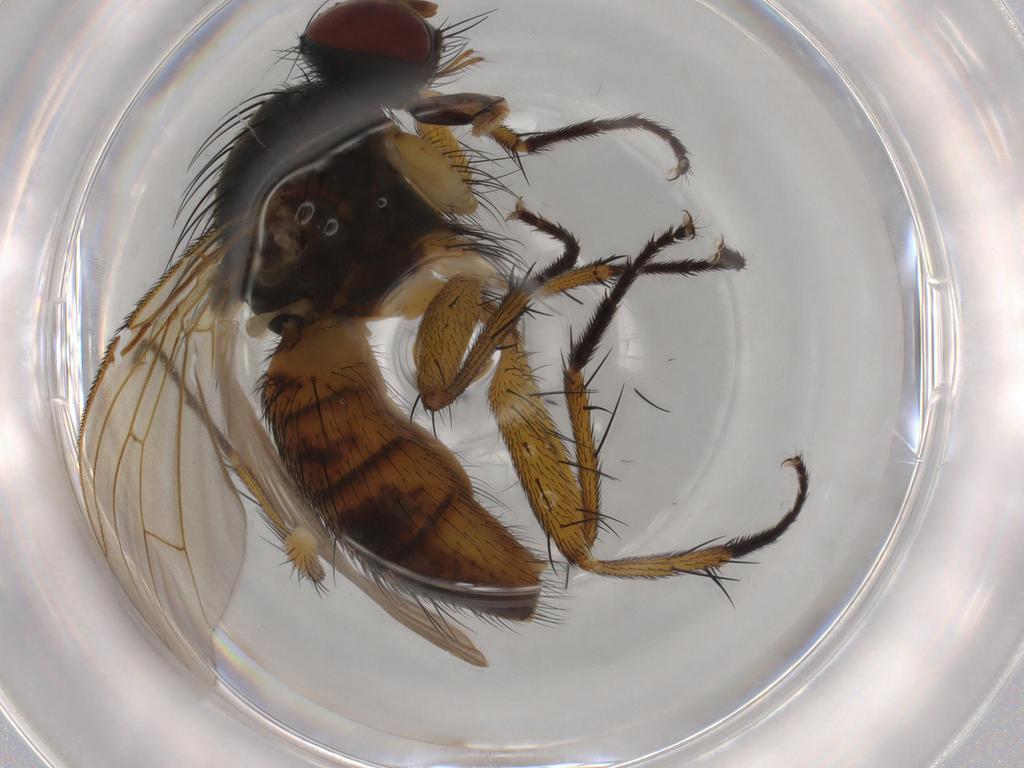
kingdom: Animalia
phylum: Arthropoda
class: Insecta
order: Diptera
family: Muscidae
